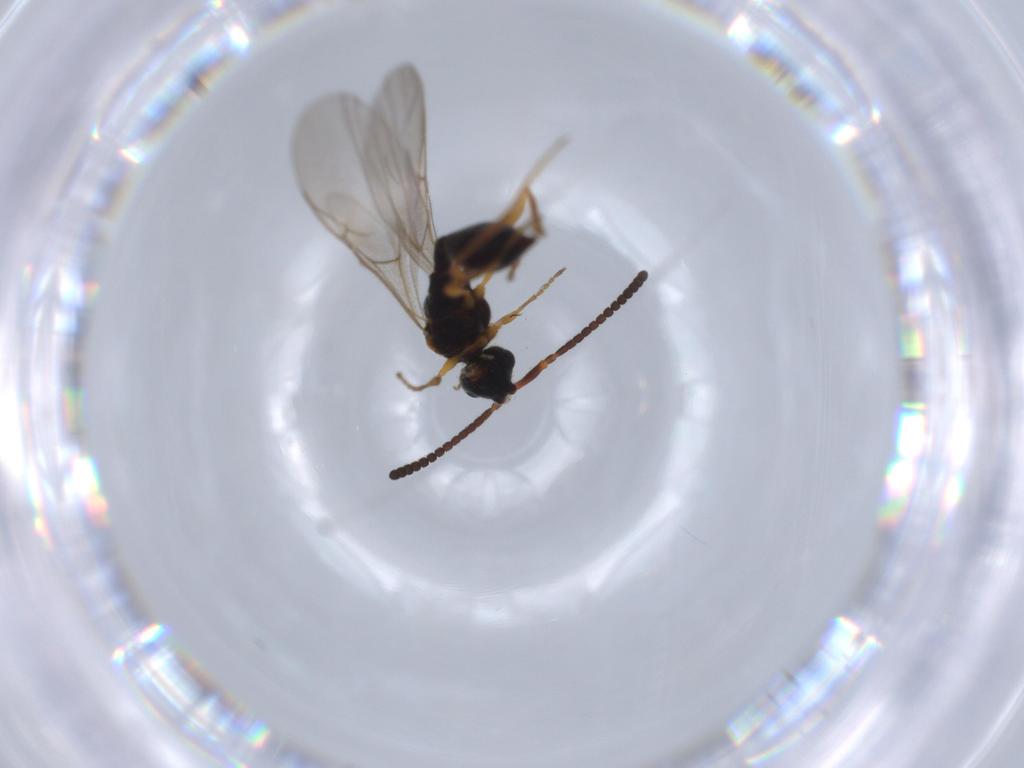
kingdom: Animalia
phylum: Arthropoda
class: Insecta
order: Hymenoptera
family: Diapriidae
